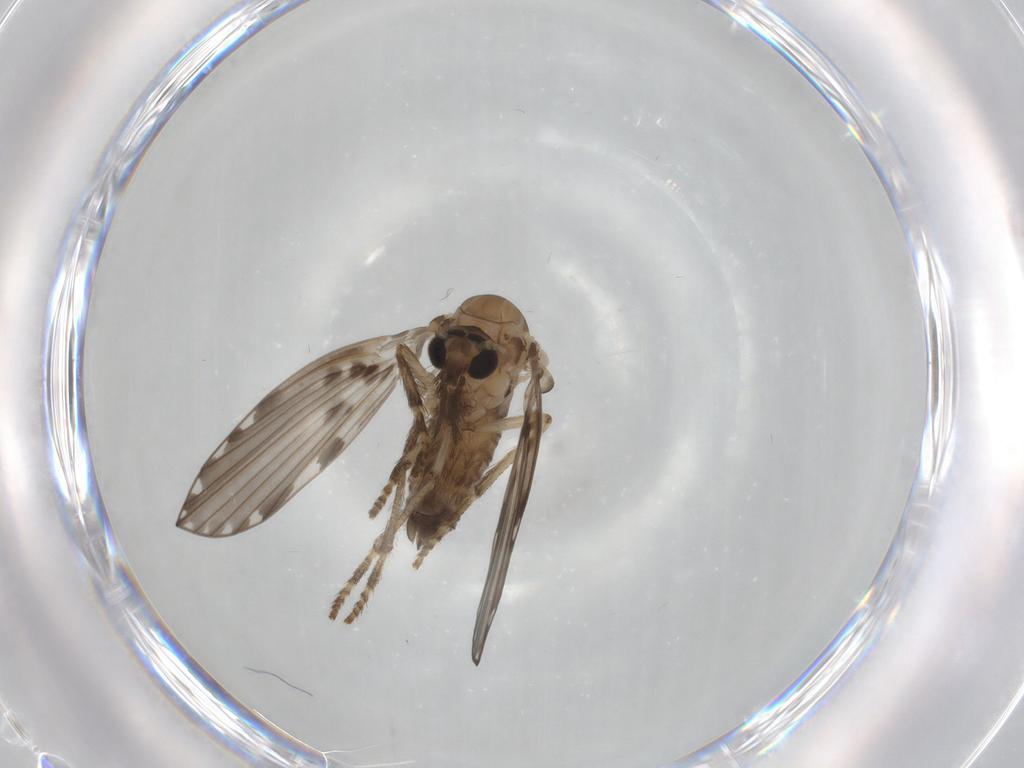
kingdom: Animalia
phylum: Arthropoda
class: Insecta
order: Diptera
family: Psychodidae
